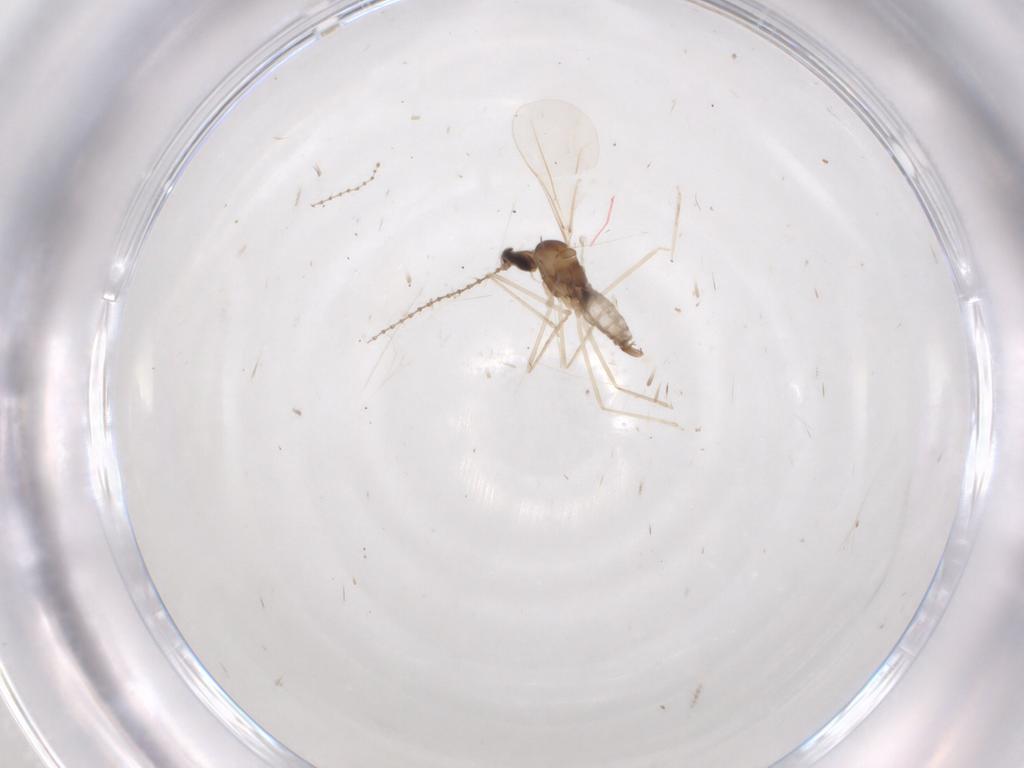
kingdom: Animalia
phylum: Arthropoda
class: Insecta
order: Diptera
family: Cecidomyiidae
